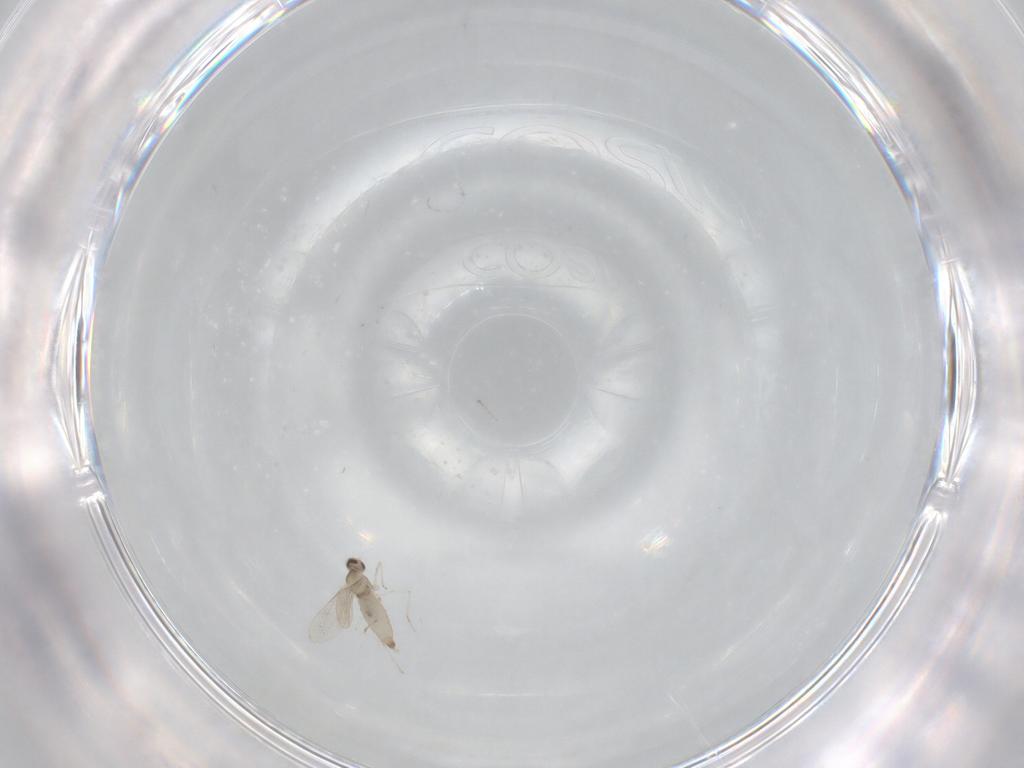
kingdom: Animalia
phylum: Arthropoda
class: Insecta
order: Diptera
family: Cecidomyiidae
